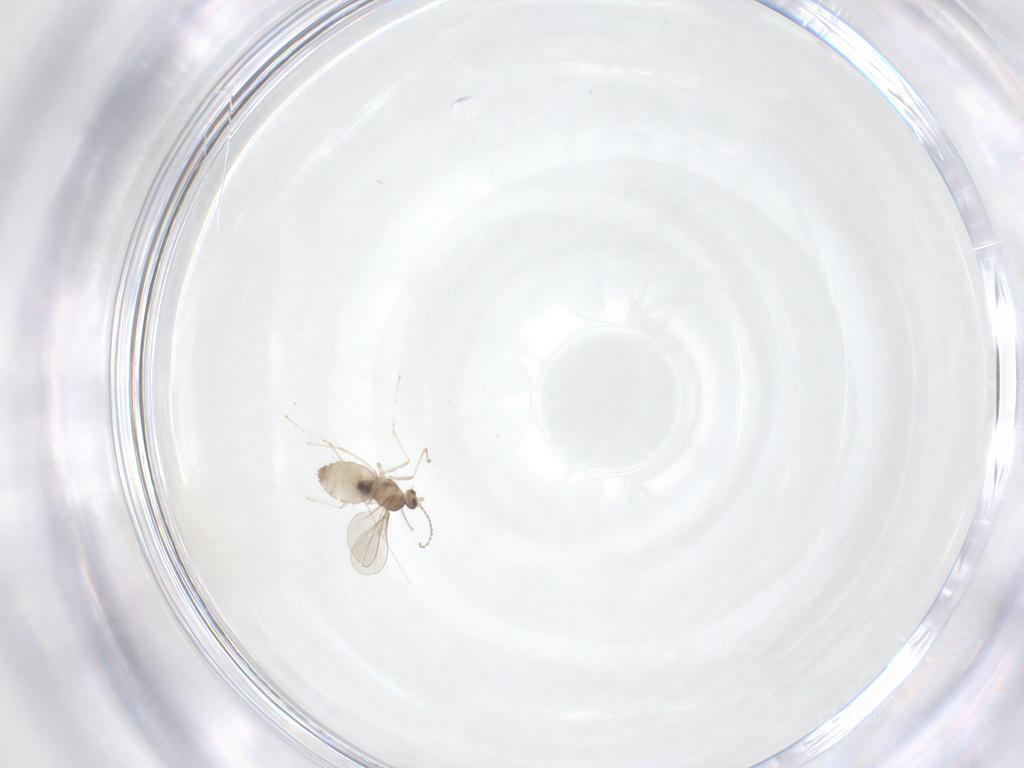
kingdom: Animalia
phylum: Arthropoda
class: Insecta
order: Diptera
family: Cecidomyiidae
